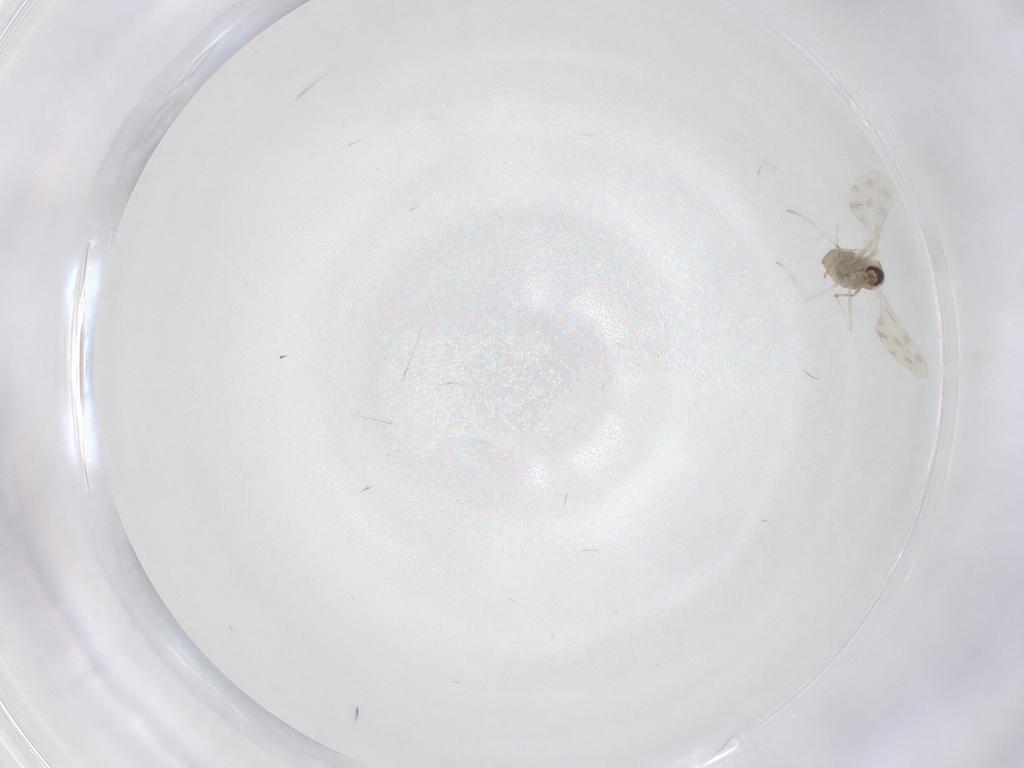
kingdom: Animalia
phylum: Arthropoda
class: Insecta
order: Diptera
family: Cecidomyiidae
